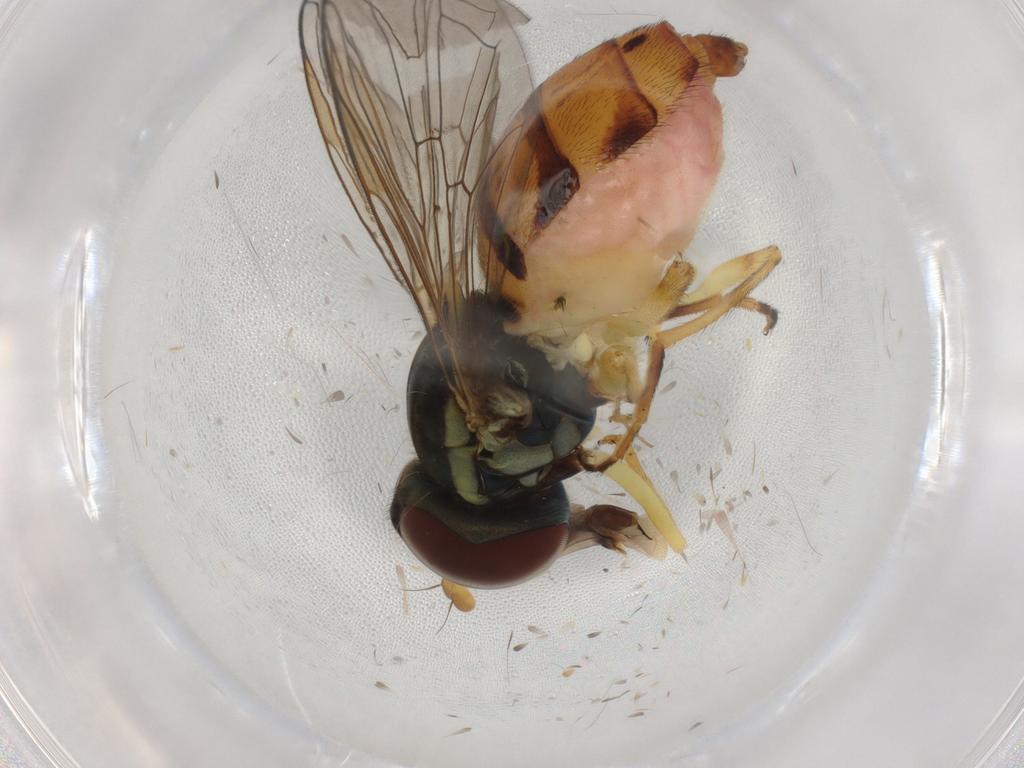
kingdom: Animalia
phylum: Arthropoda
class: Insecta
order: Diptera
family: Syrphidae
